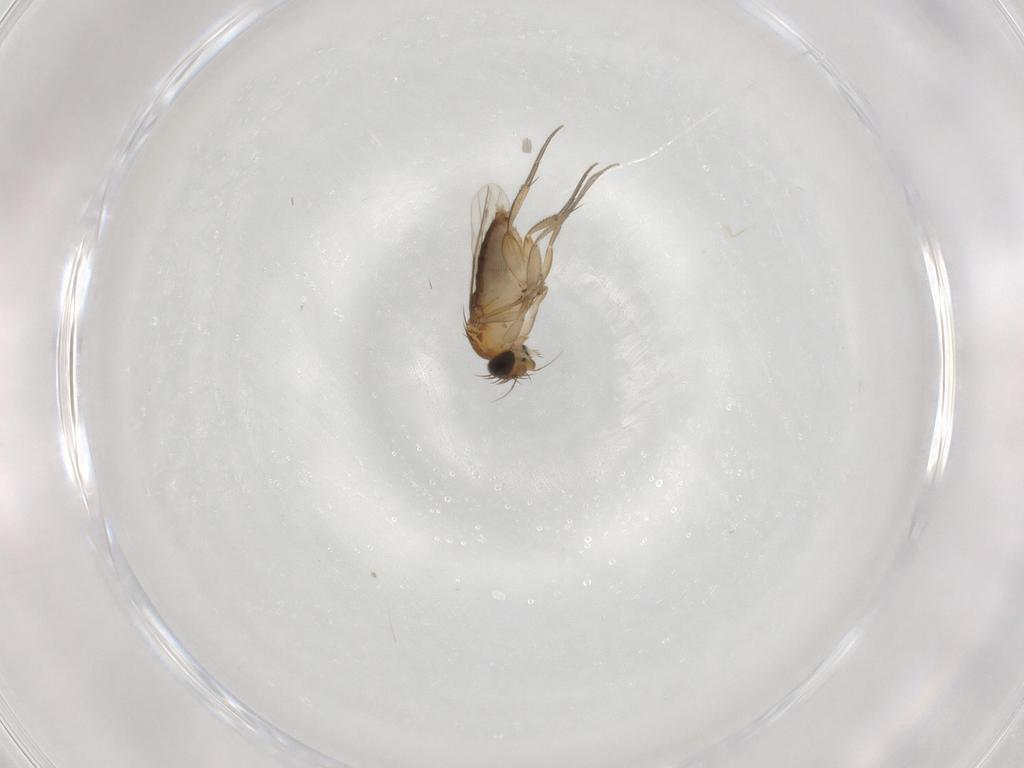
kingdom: Animalia
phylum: Arthropoda
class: Insecta
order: Diptera
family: Phoridae
